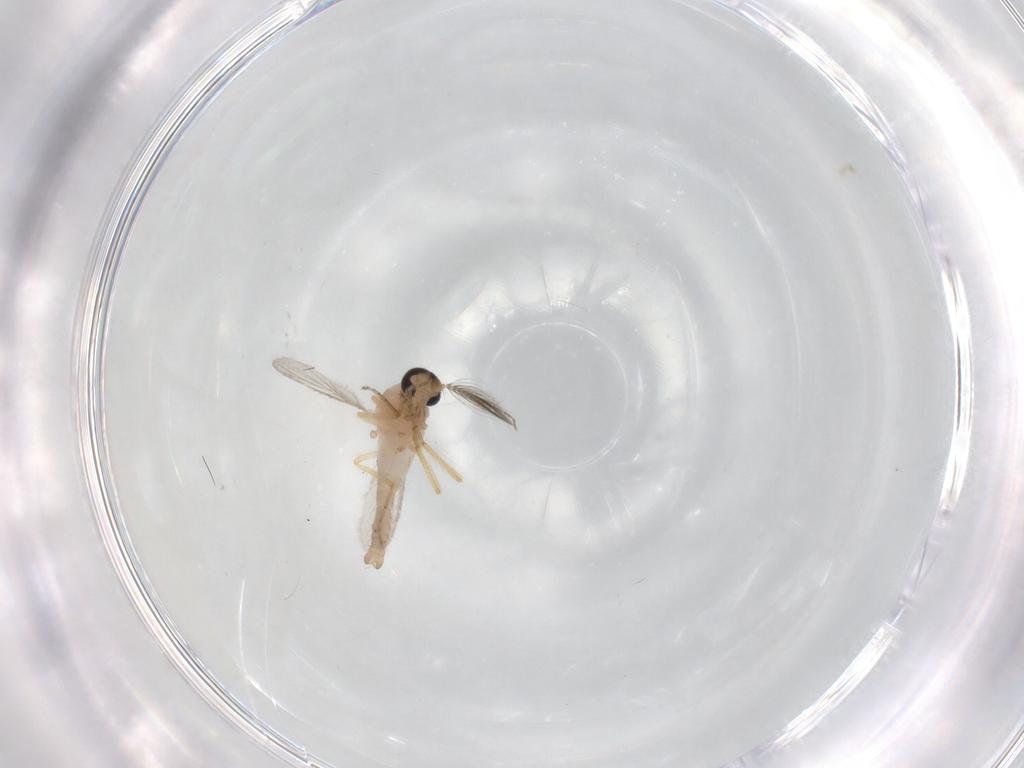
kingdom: Animalia
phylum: Arthropoda
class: Insecta
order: Diptera
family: Ceratopogonidae
